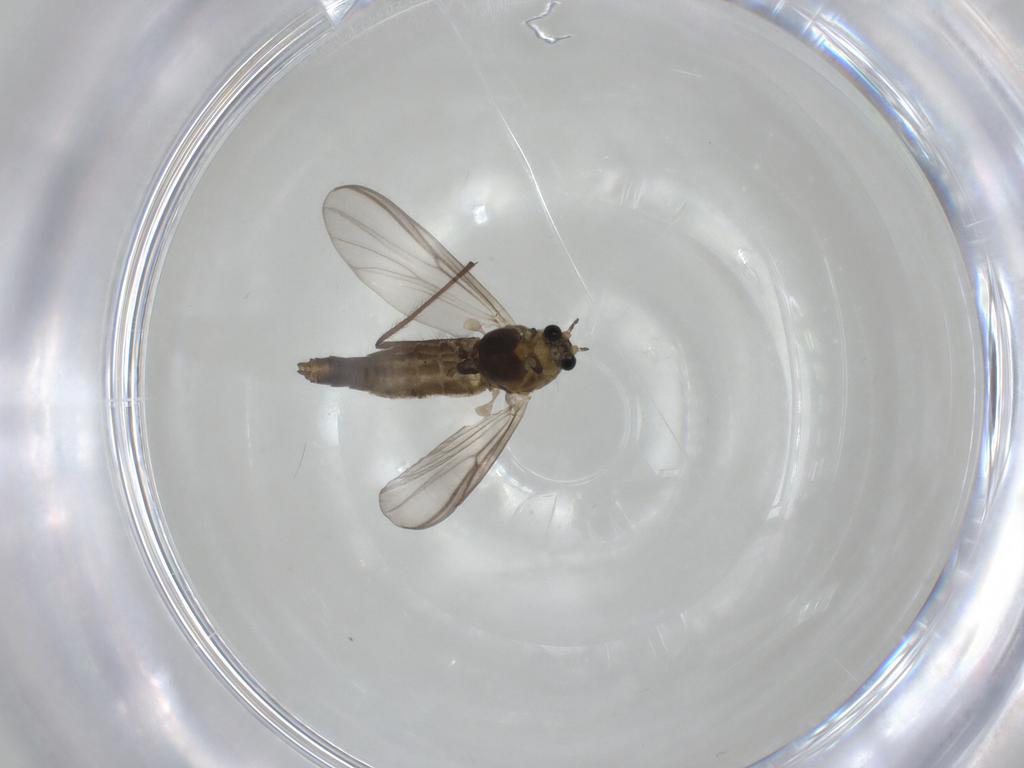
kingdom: Animalia
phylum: Arthropoda
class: Insecta
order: Diptera
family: Chironomidae
